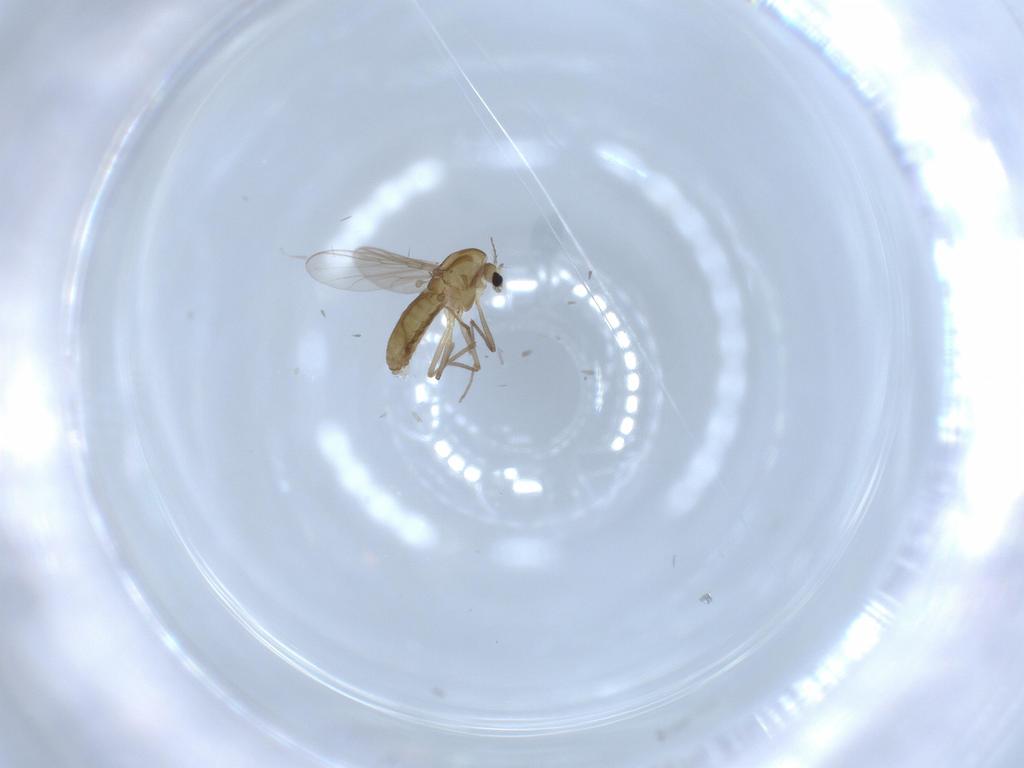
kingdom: Animalia
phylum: Arthropoda
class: Insecta
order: Diptera
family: Chironomidae
